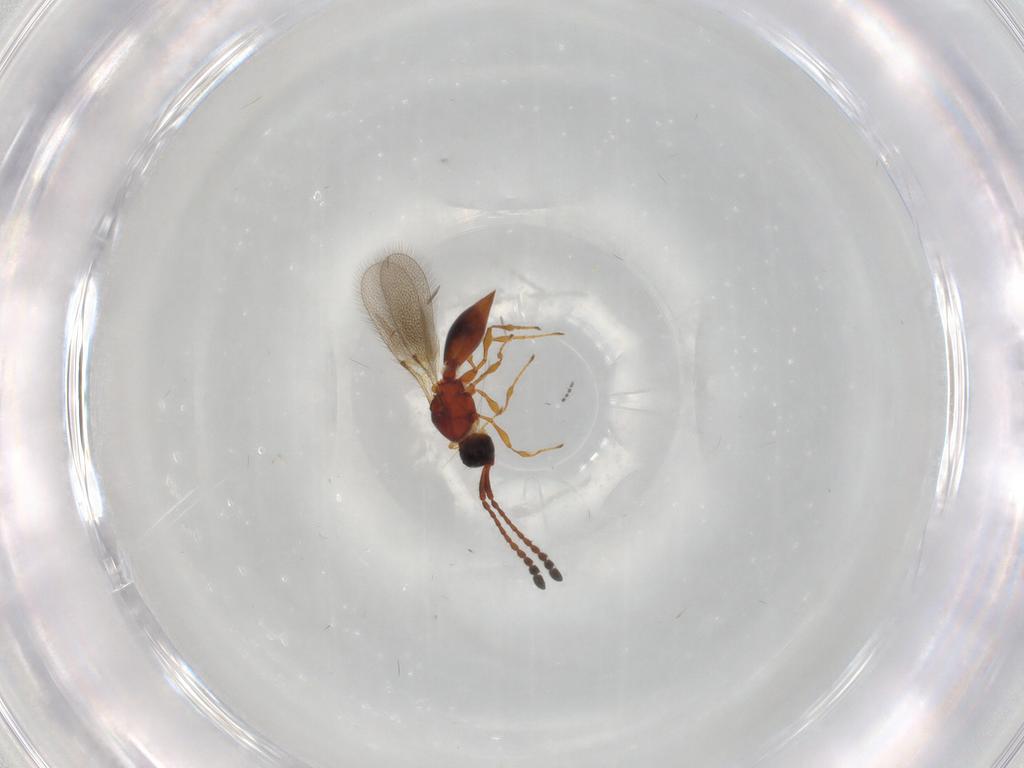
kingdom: Animalia
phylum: Arthropoda
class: Insecta
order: Hymenoptera
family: Diapriidae
